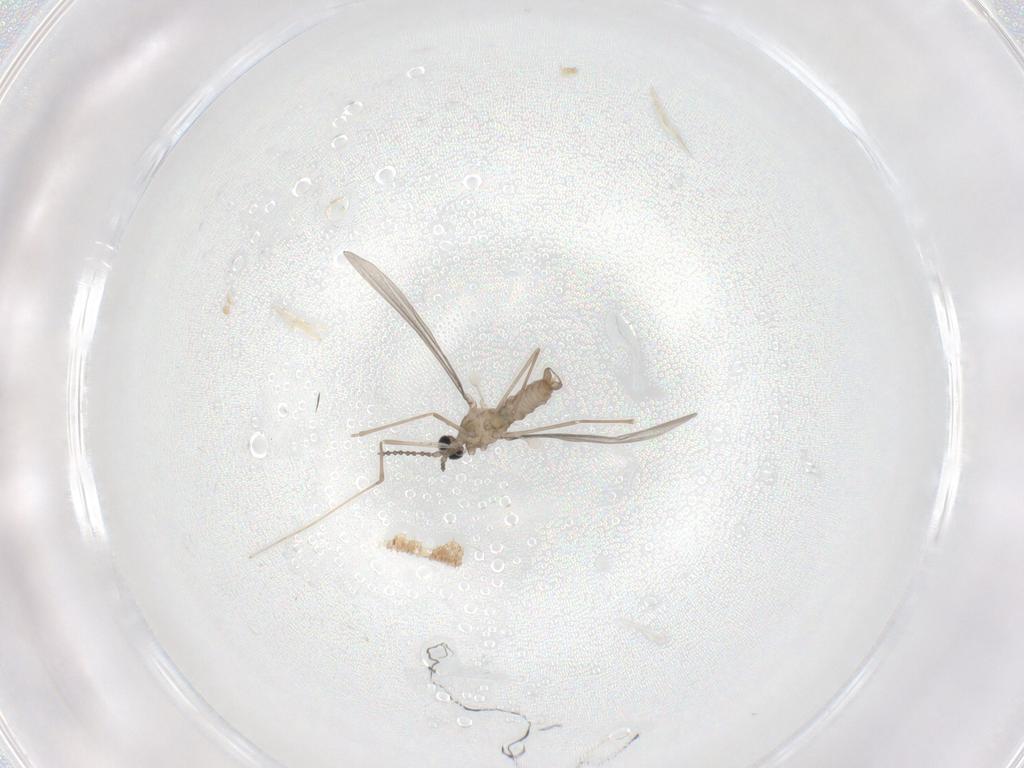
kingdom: Animalia
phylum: Arthropoda
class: Insecta
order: Diptera
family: Cecidomyiidae
